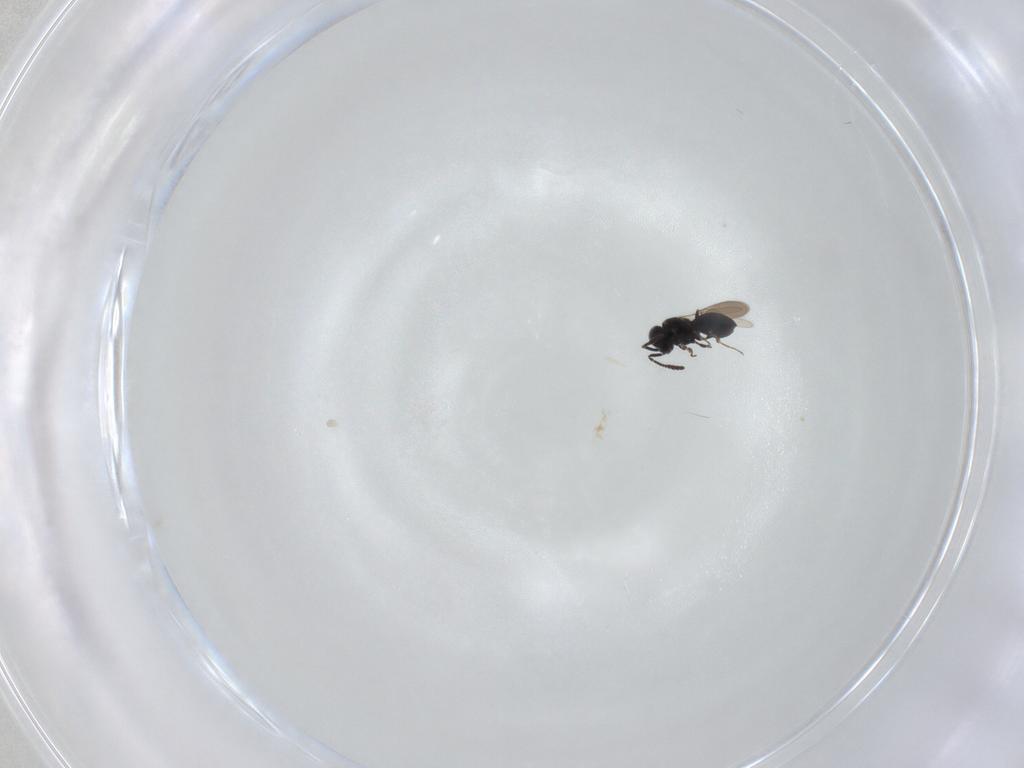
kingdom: Animalia
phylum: Arthropoda
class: Insecta
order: Hymenoptera
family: Scelionidae
